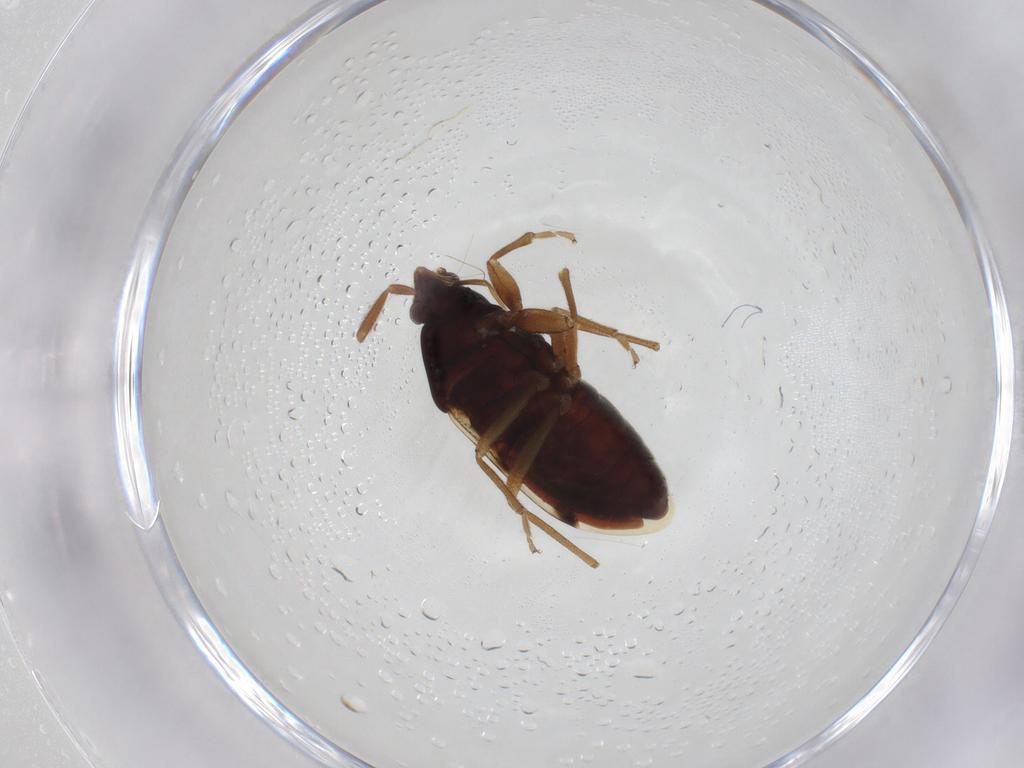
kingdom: Animalia
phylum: Arthropoda
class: Insecta
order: Hemiptera
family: Rhyparochromidae
